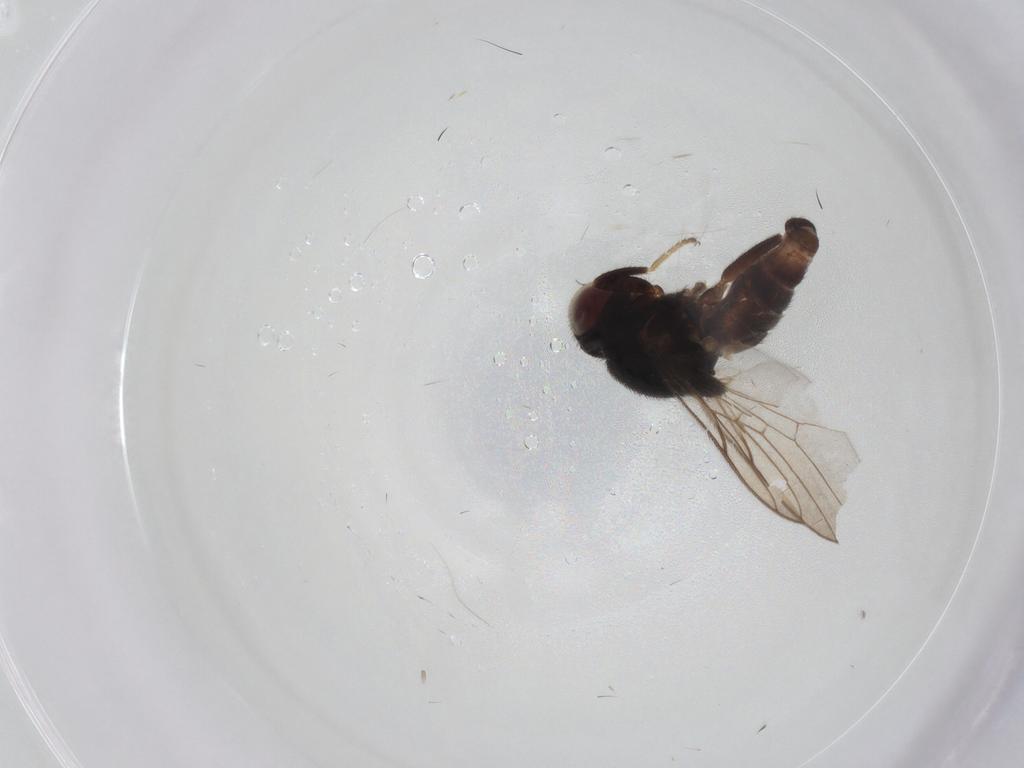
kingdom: Animalia
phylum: Arthropoda
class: Insecta
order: Diptera
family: Chloropidae
